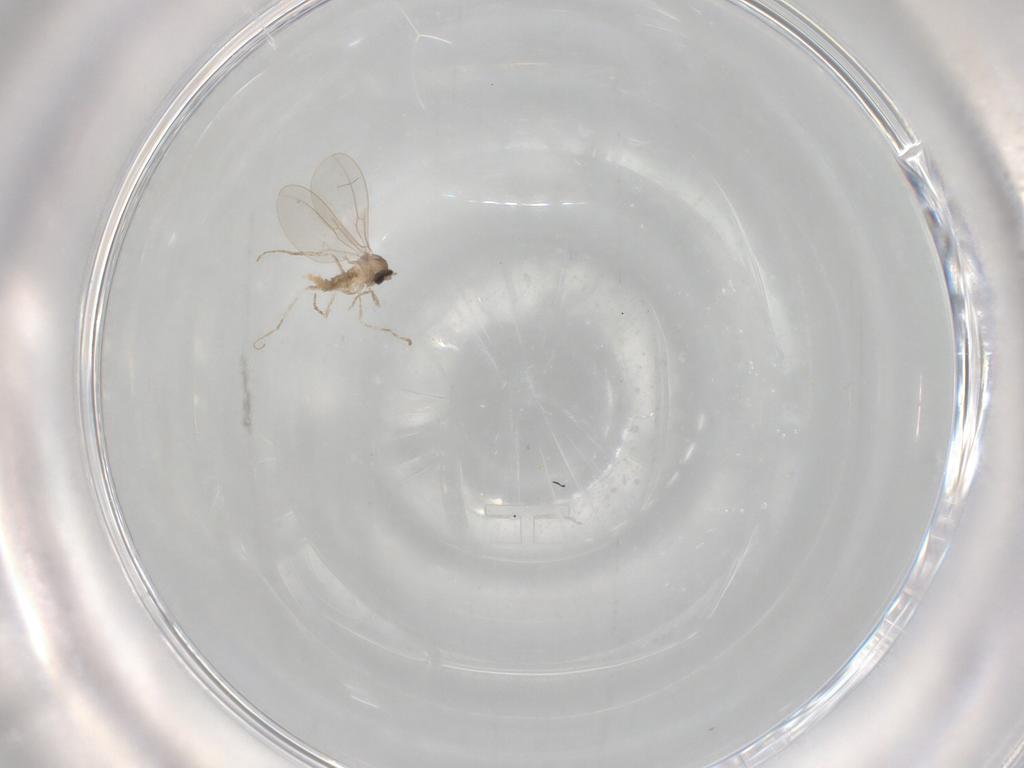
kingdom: Animalia
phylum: Arthropoda
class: Insecta
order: Diptera
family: Cecidomyiidae
